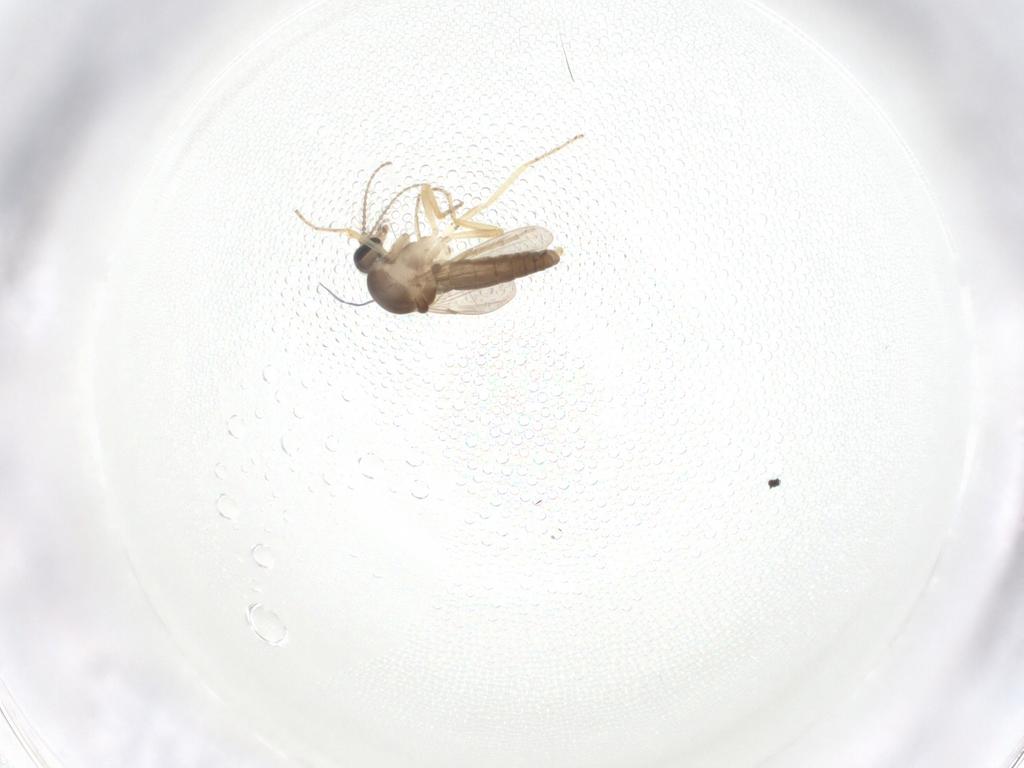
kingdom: Animalia
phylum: Arthropoda
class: Insecta
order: Diptera
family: Ceratopogonidae
